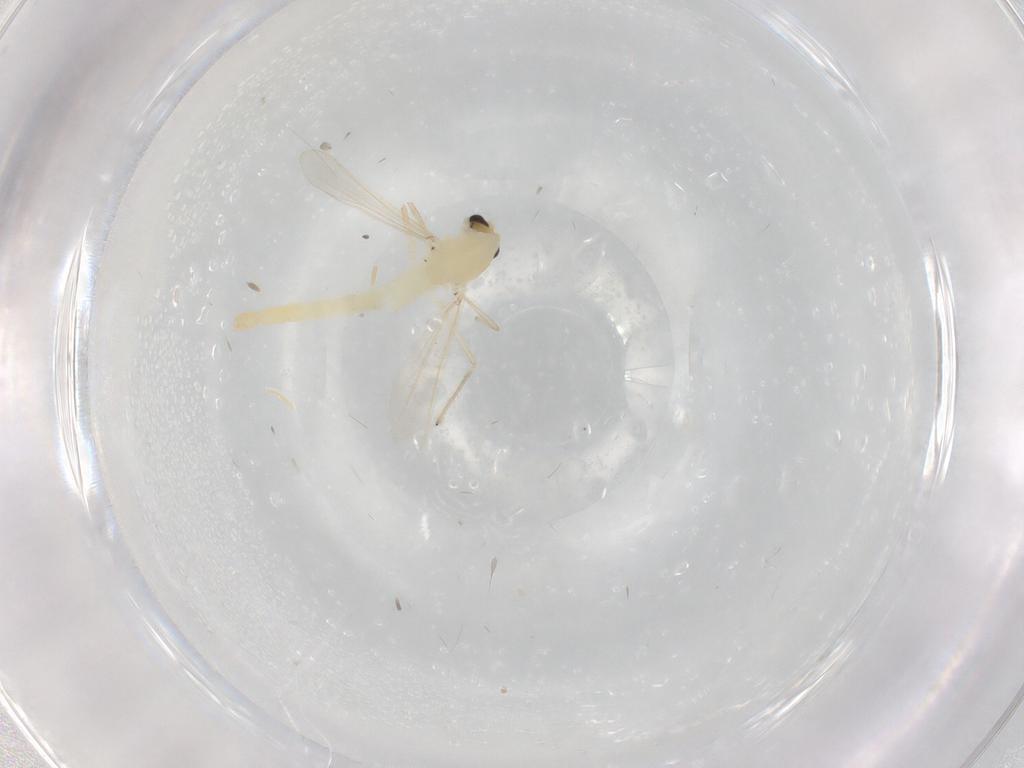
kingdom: Animalia
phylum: Arthropoda
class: Insecta
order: Diptera
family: Chironomidae
